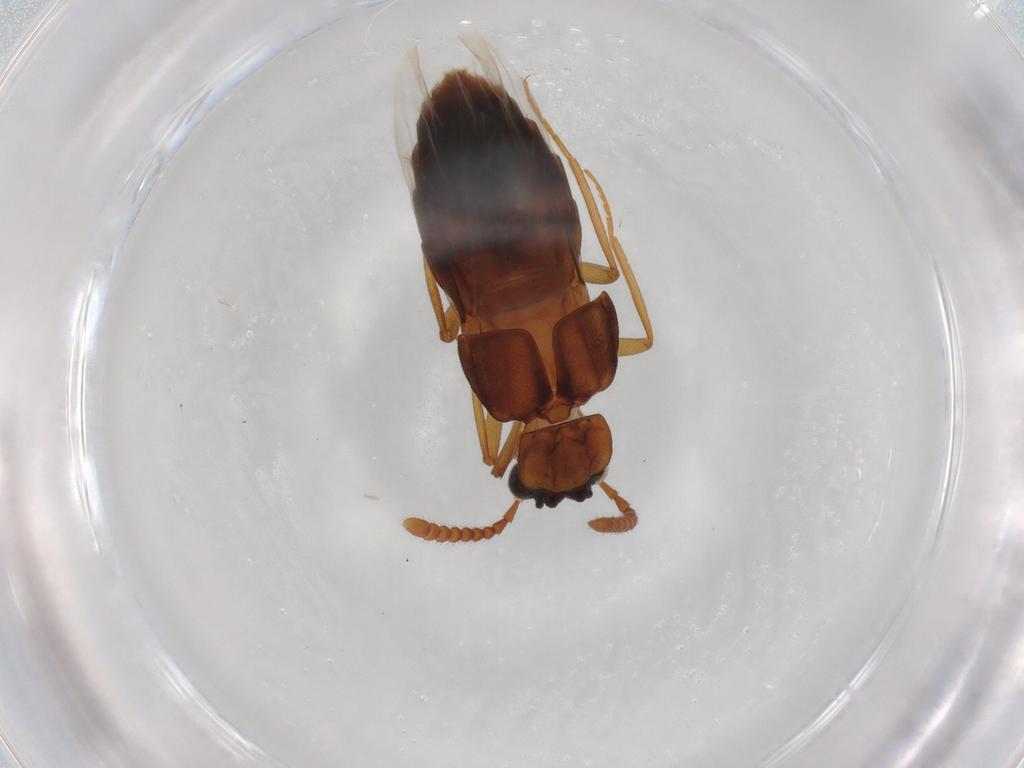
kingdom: Animalia
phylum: Arthropoda
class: Insecta
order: Coleoptera
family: Staphylinidae
